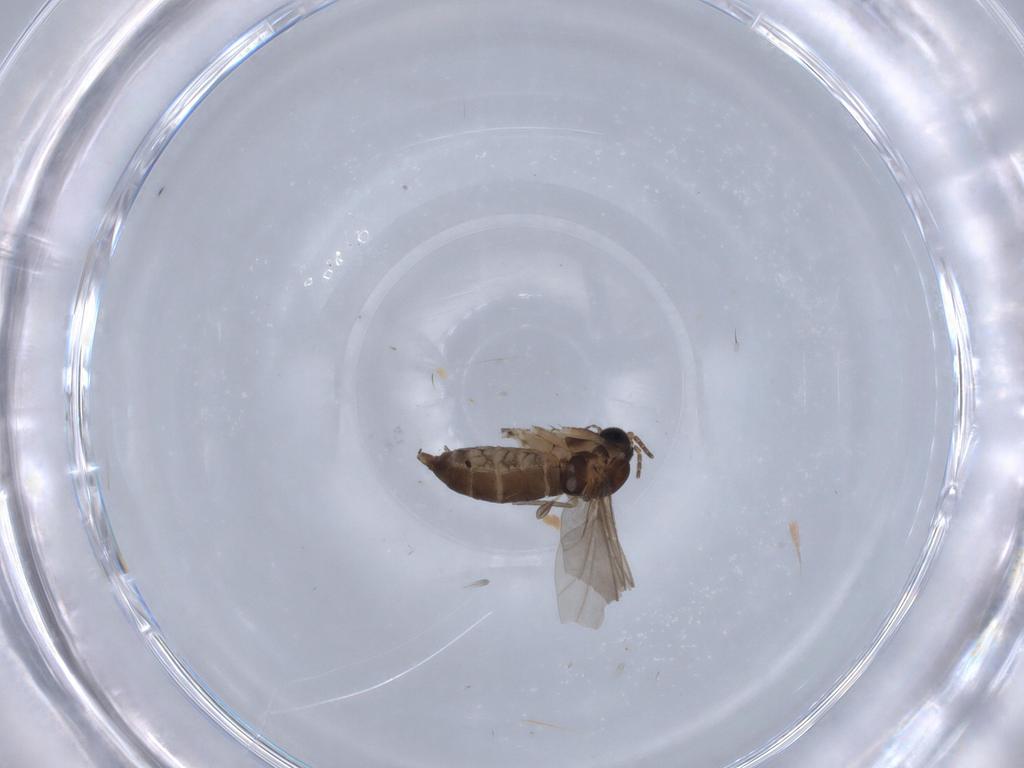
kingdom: Animalia
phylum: Arthropoda
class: Insecta
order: Diptera
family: Sciaridae
